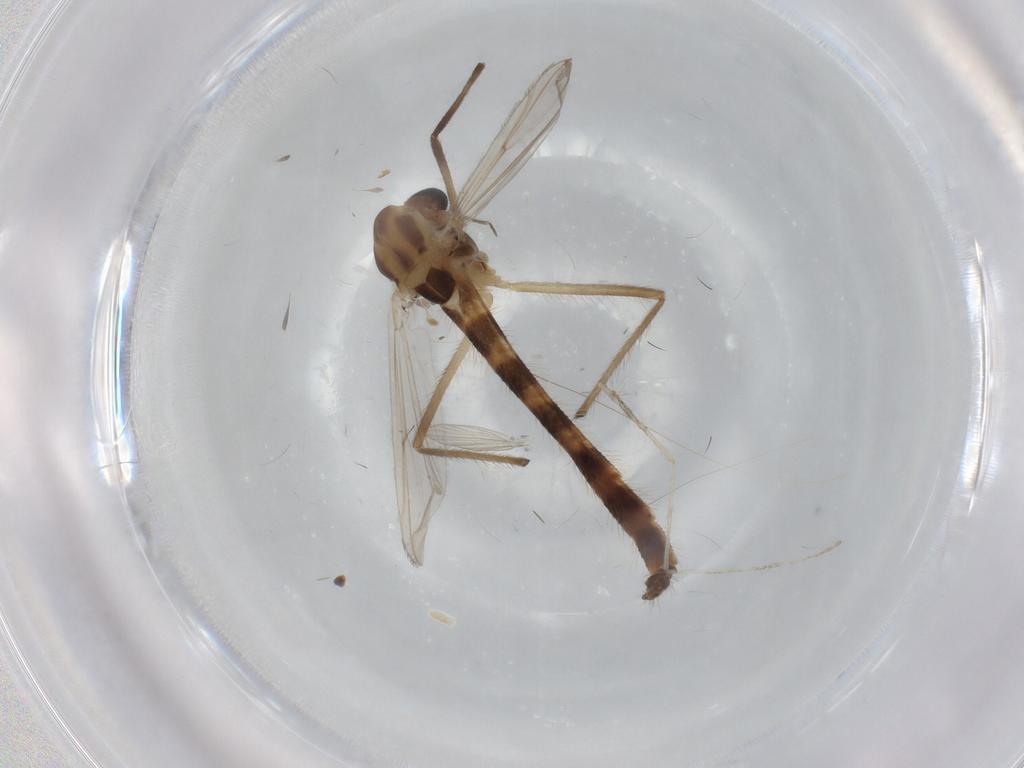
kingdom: Animalia
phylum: Arthropoda
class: Insecta
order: Diptera
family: Chironomidae
